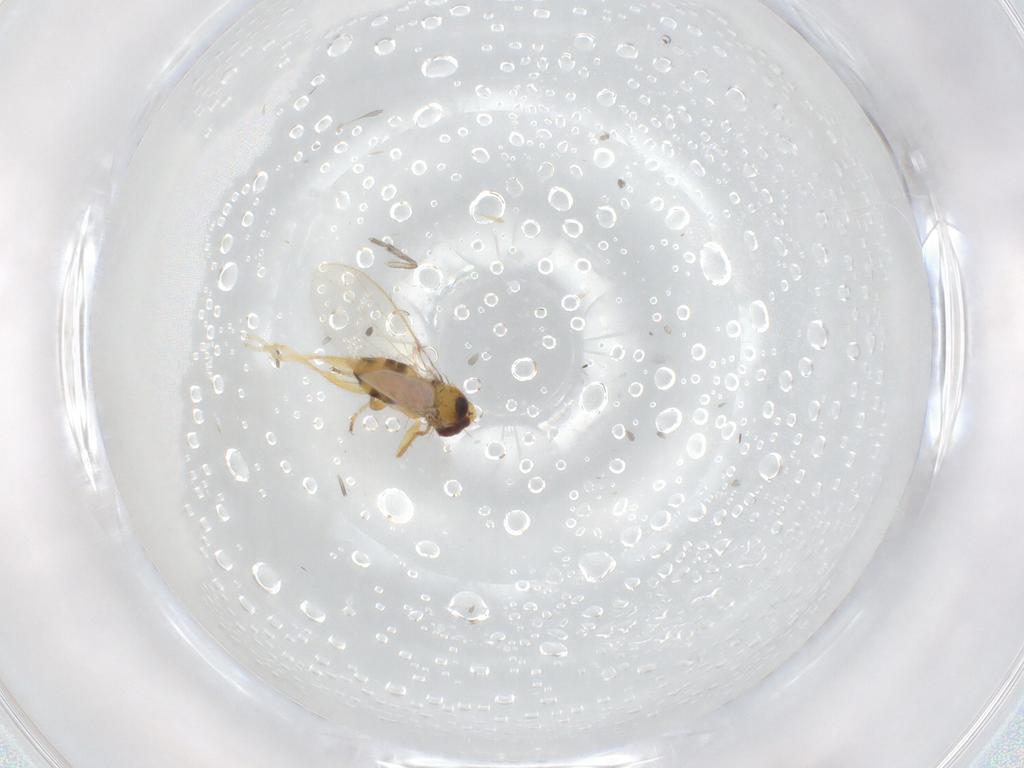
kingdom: Animalia
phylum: Arthropoda
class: Insecta
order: Diptera
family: Periscelididae
